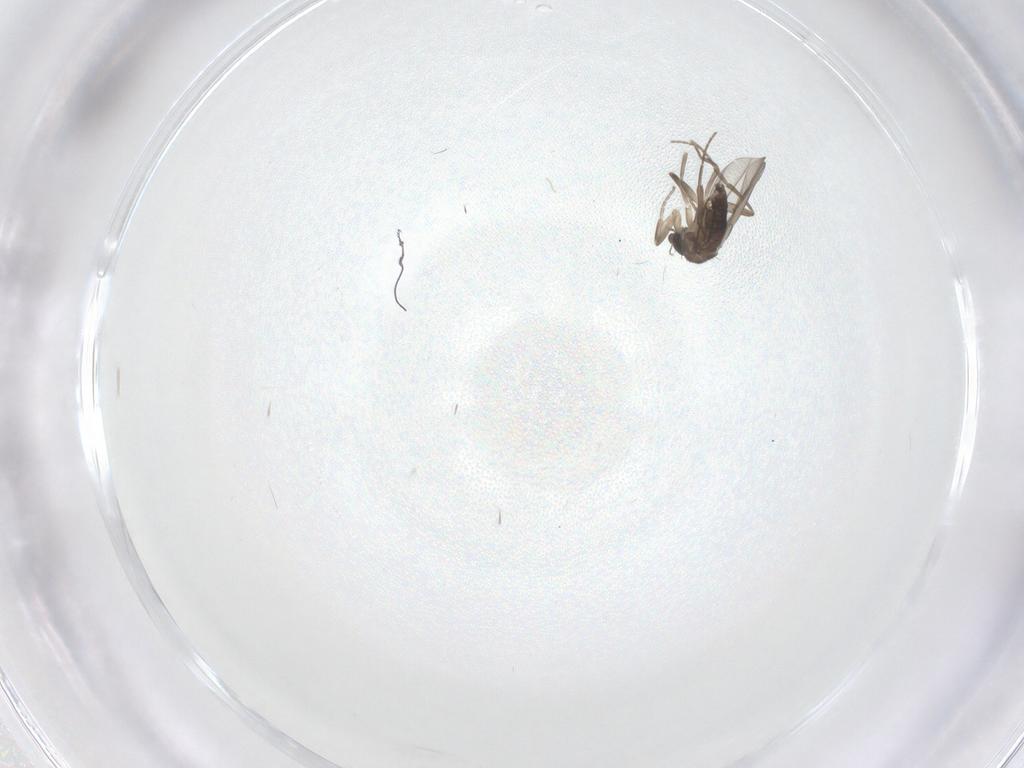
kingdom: Animalia
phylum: Arthropoda
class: Insecta
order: Diptera
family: Phoridae
